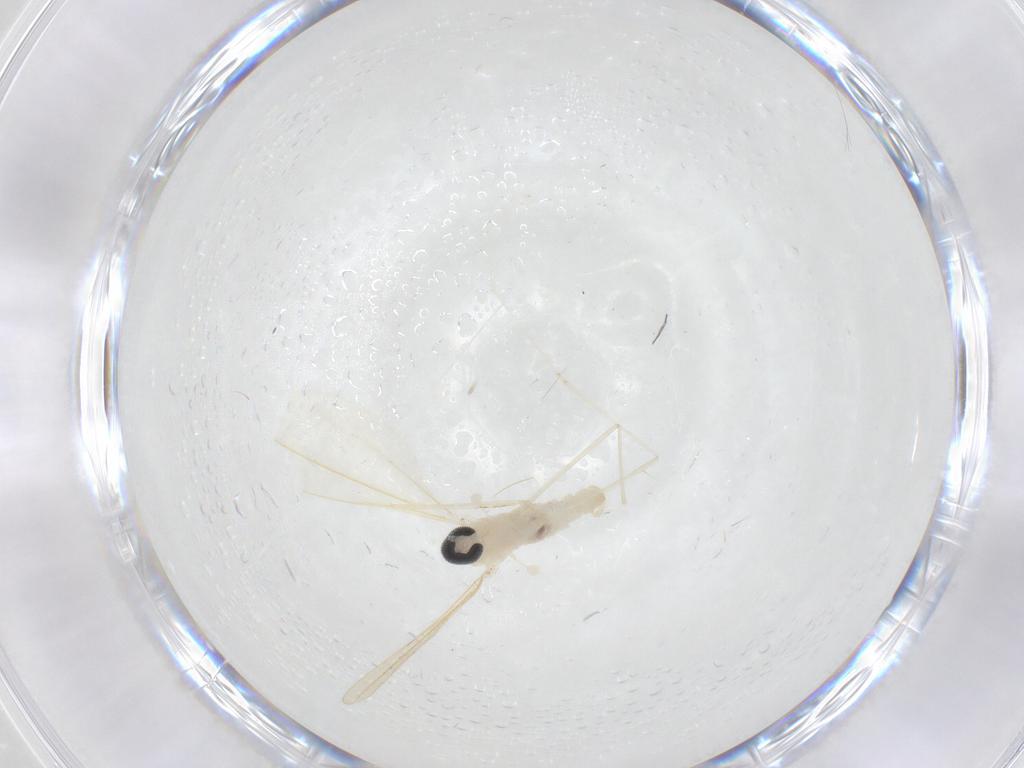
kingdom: Animalia
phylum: Arthropoda
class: Insecta
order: Diptera
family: Cecidomyiidae
